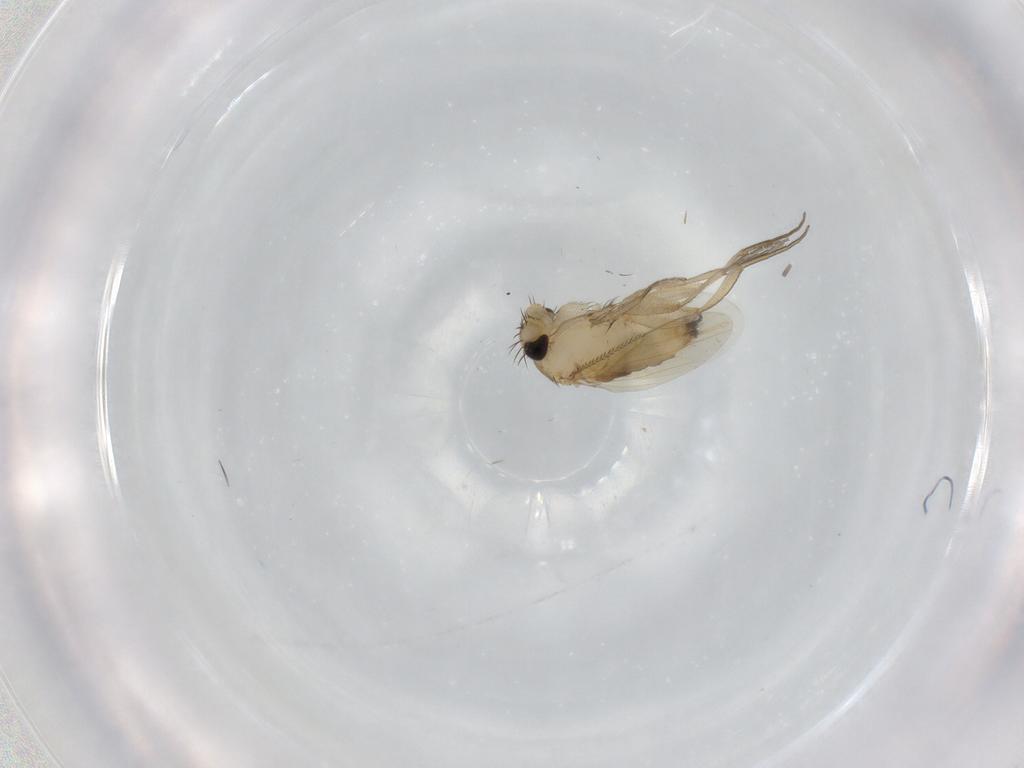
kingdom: Animalia
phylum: Arthropoda
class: Insecta
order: Diptera
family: Phoridae
